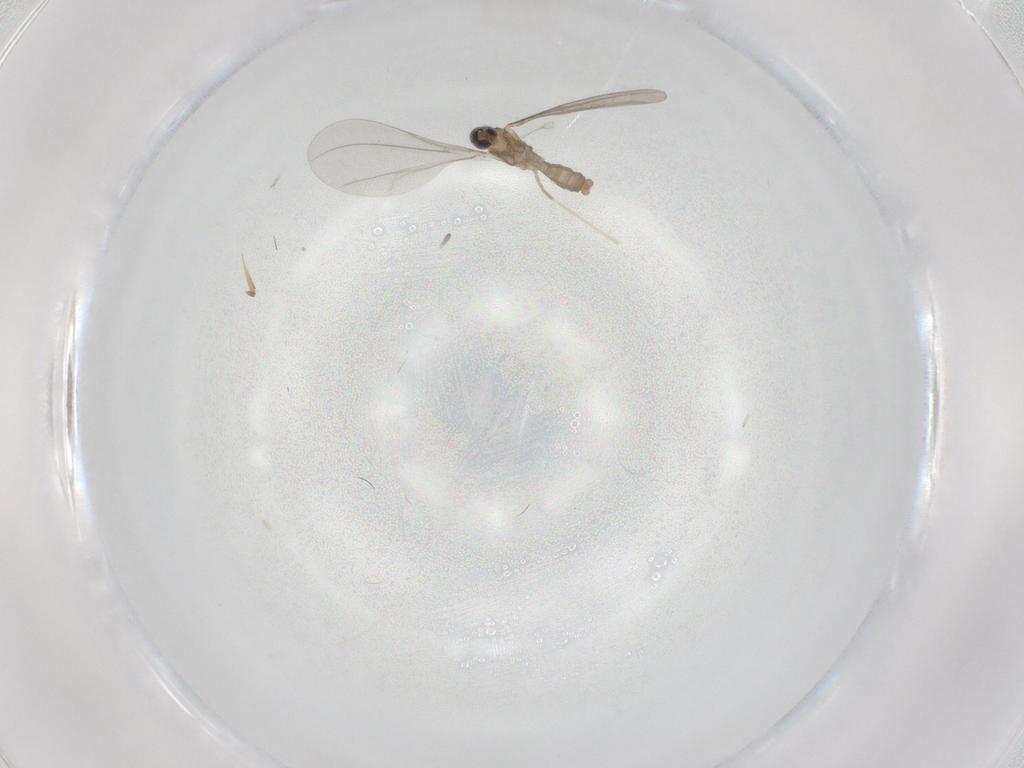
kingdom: Animalia
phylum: Arthropoda
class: Insecta
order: Diptera
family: Cecidomyiidae
